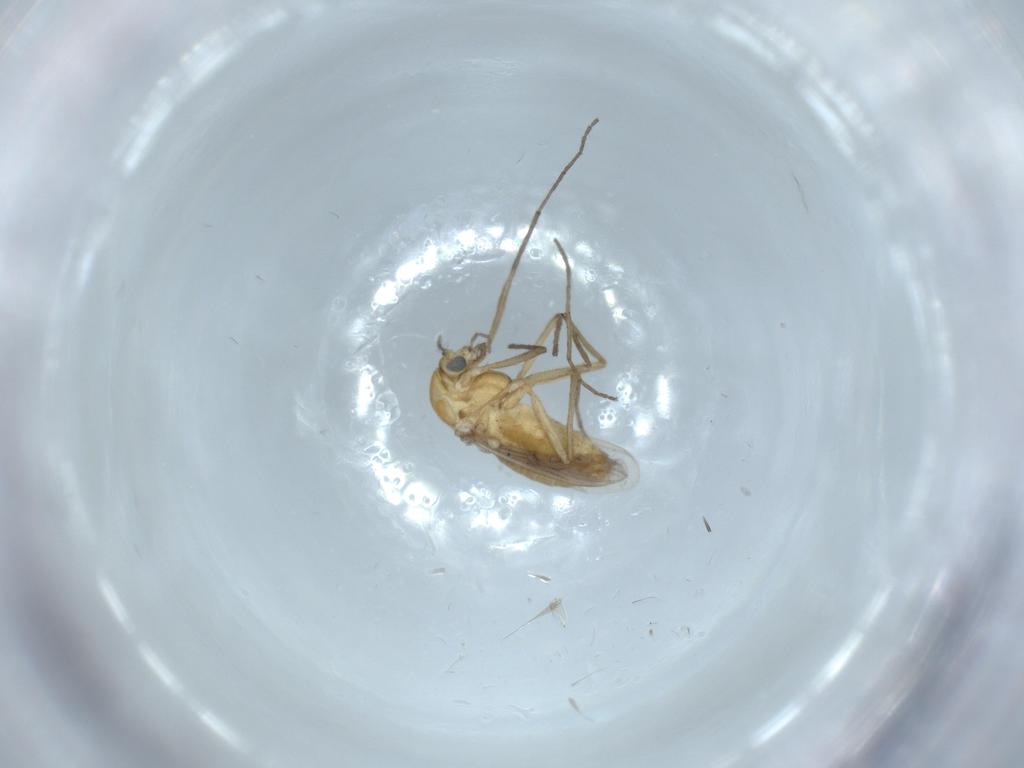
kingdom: Animalia
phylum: Arthropoda
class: Insecta
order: Diptera
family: Chironomidae
